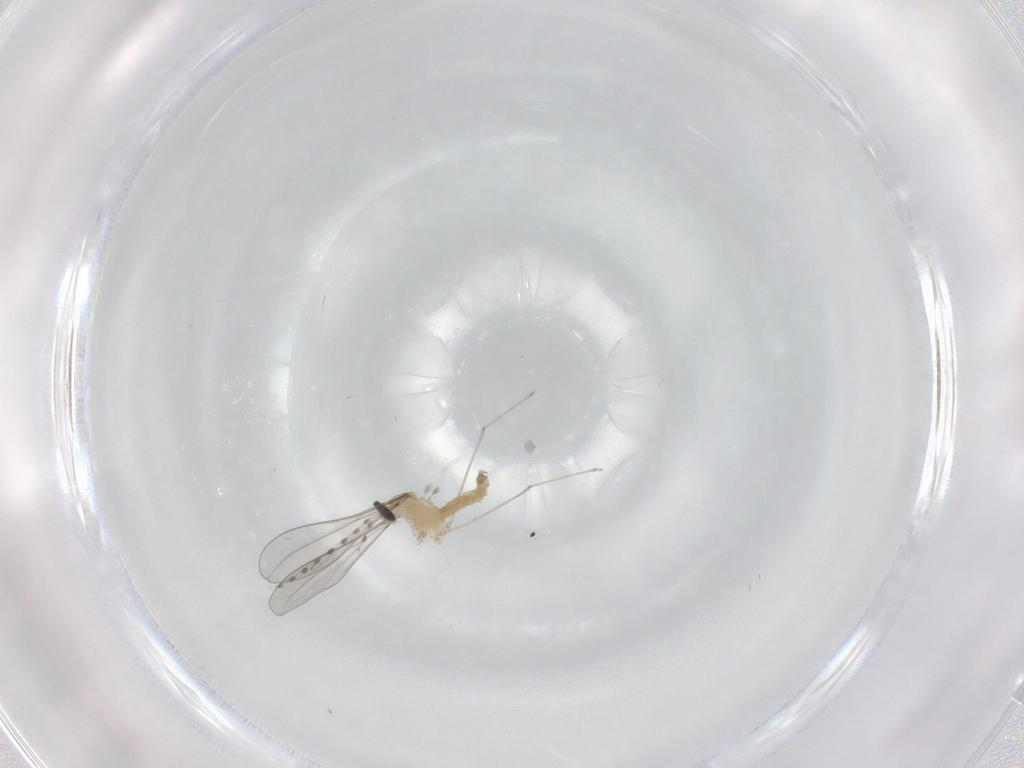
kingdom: Animalia
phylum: Arthropoda
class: Insecta
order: Diptera
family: Cecidomyiidae
